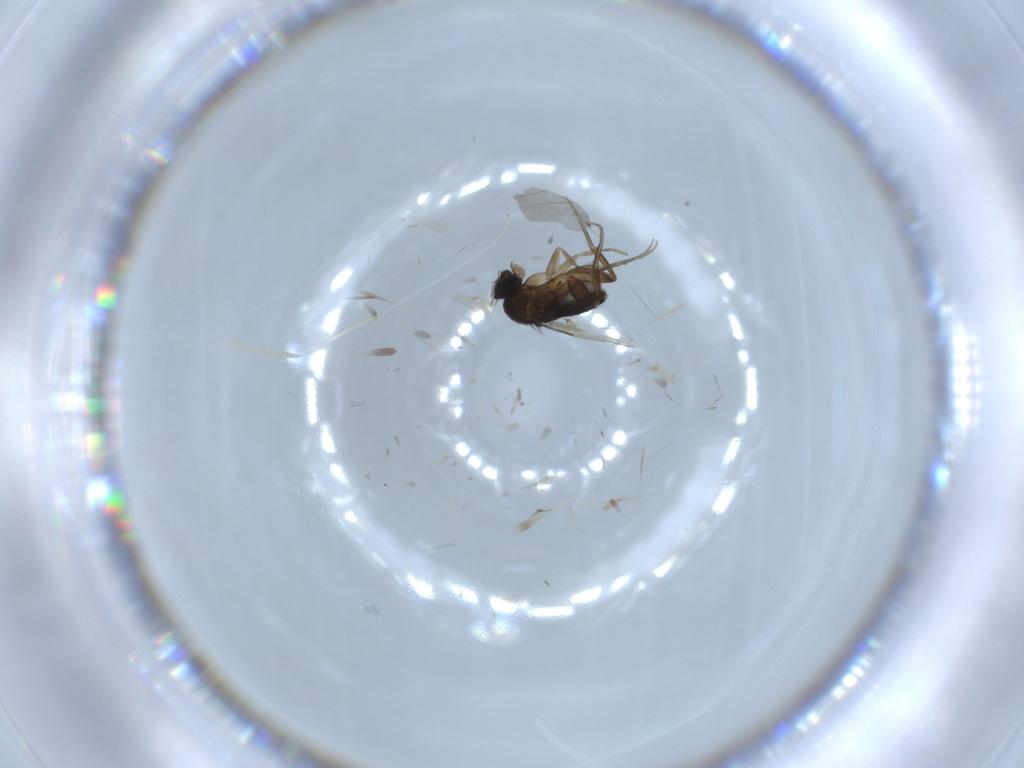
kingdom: Animalia
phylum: Arthropoda
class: Insecta
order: Diptera
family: Phoridae
